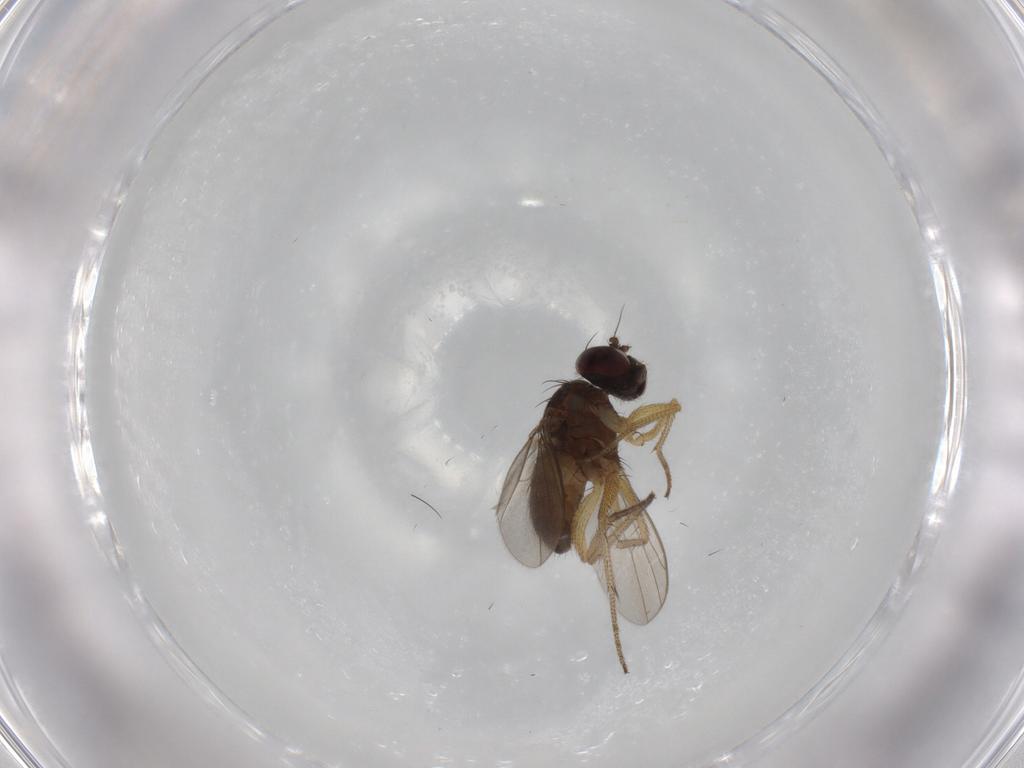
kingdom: Animalia
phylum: Arthropoda
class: Insecta
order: Diptera
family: Dolichopodidae
